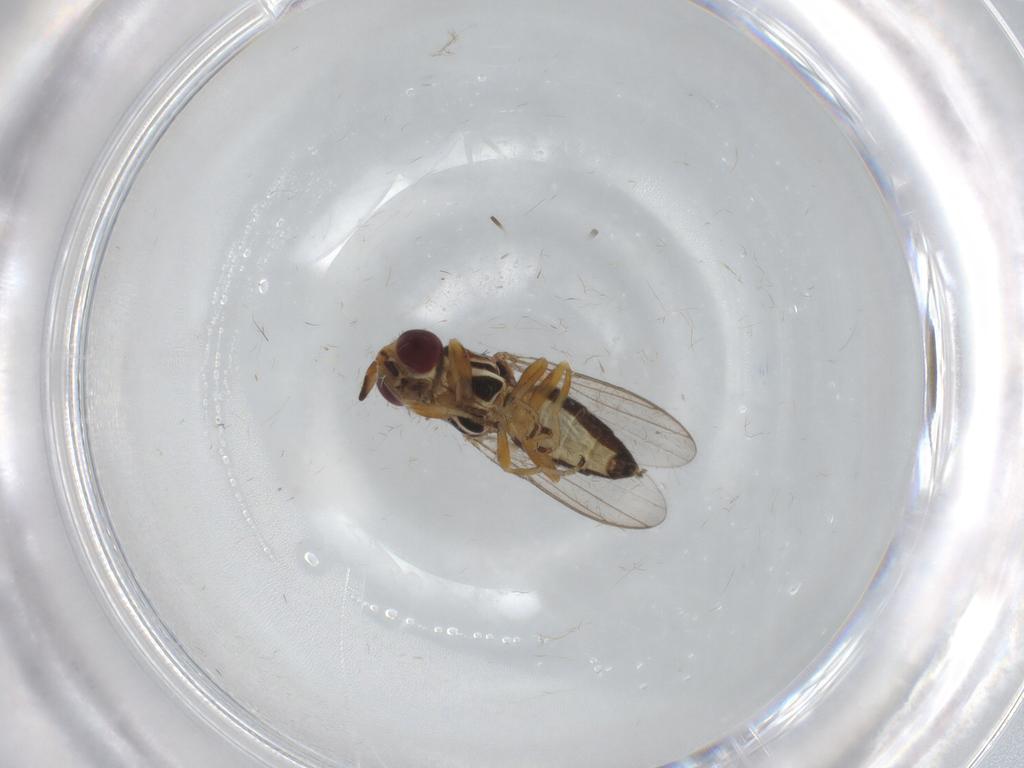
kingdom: Animalia
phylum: Arthropoda
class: Insecta
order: Diptera
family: Chloropidae
